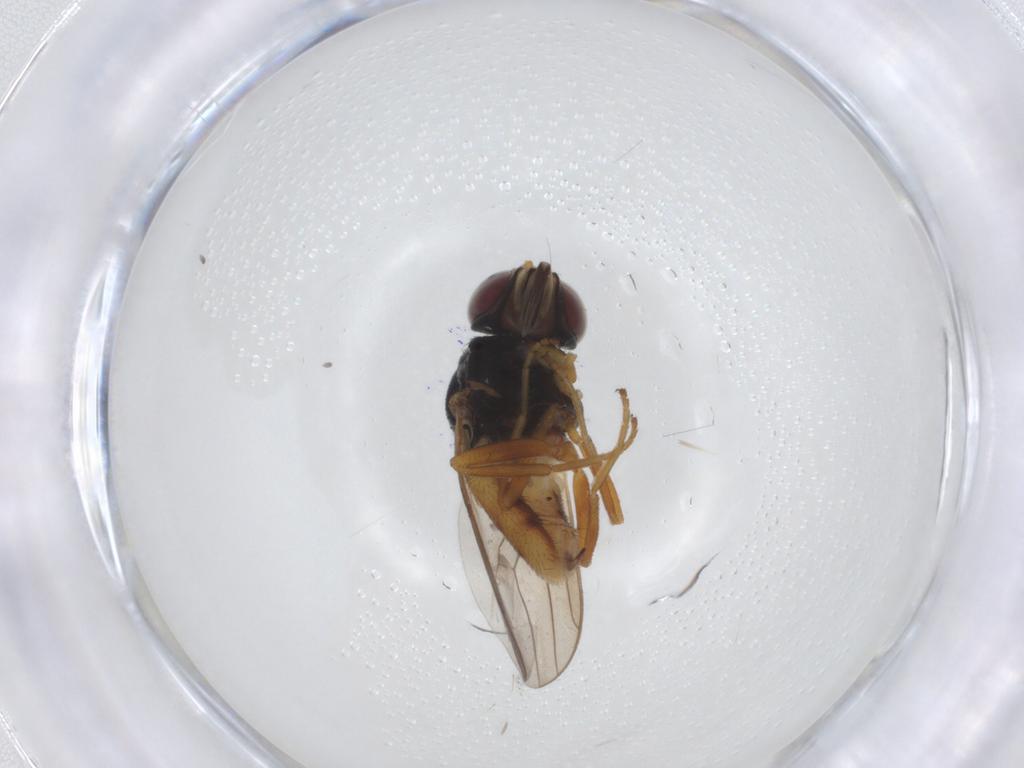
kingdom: Animalia
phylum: Arthropoda
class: Insecta
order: Diptera
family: Chloropidae
